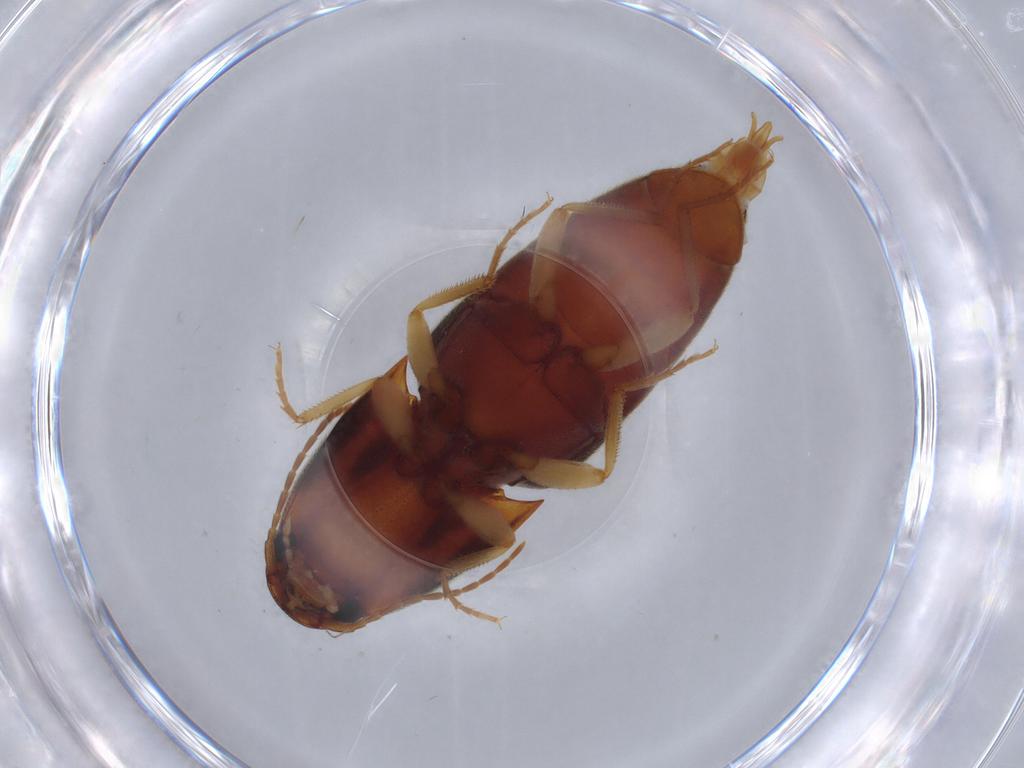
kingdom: Animalia
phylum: Arthropoda
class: Insecta
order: Coleoptera
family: Elateridae
